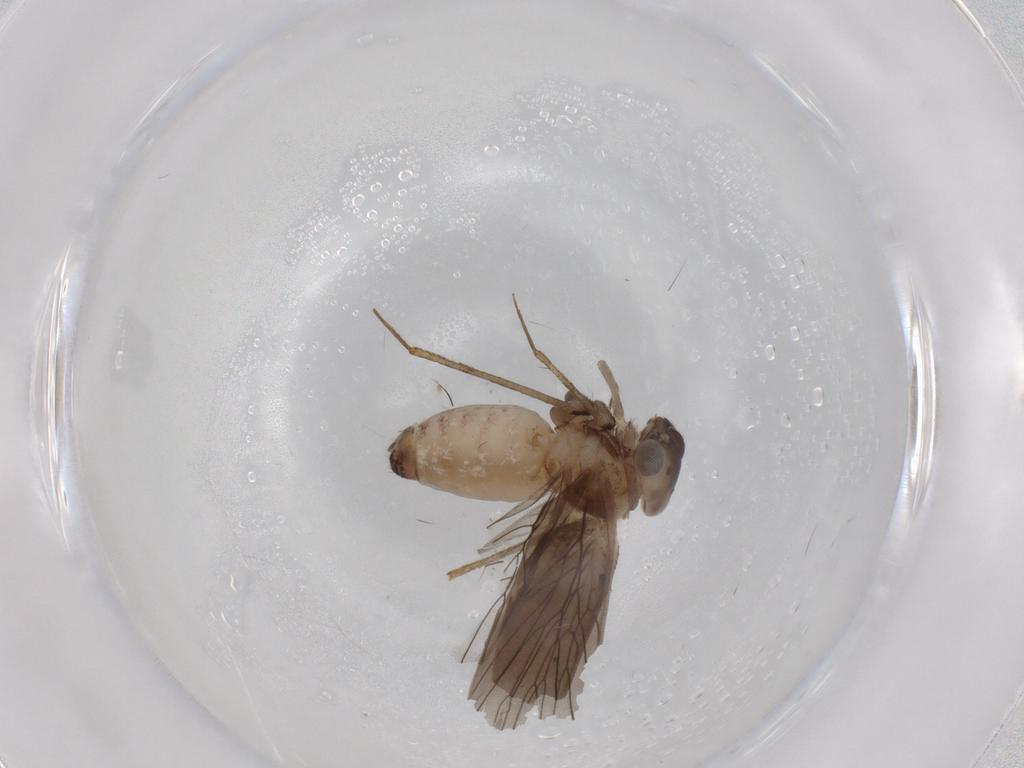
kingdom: Animalia
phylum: Arthropoda
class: Insecta
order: Psocodea
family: Lepidopsocidae
